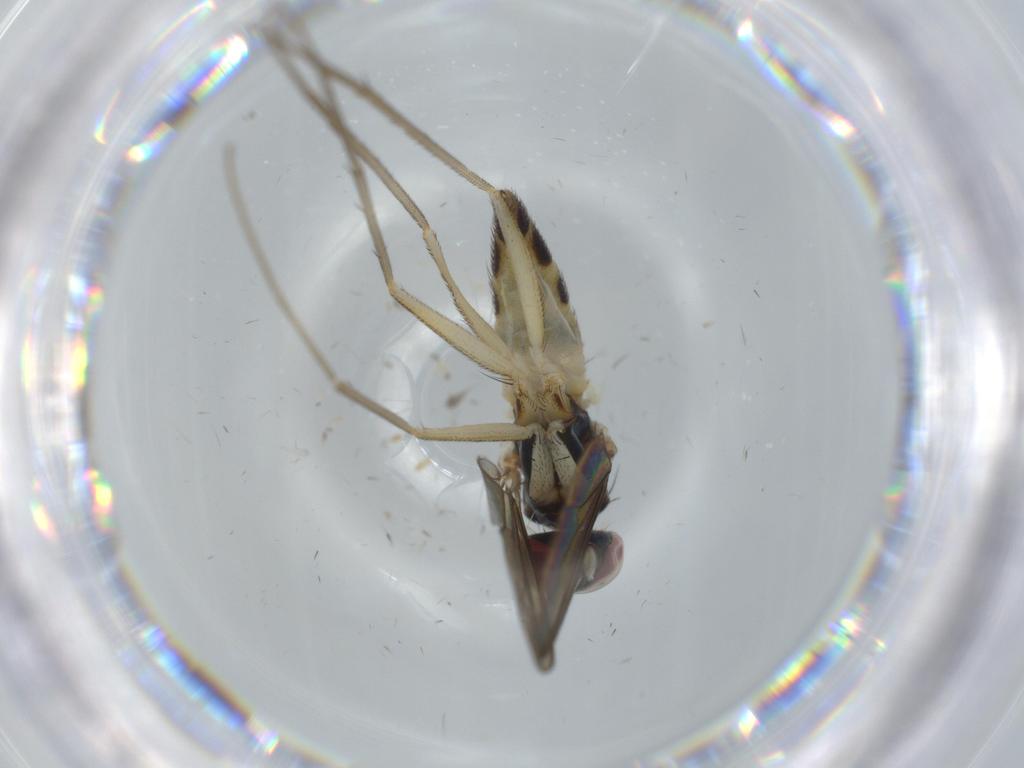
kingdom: Animalia
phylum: Arthropoda
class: Insecta
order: Diptera
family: Dolichopodidae
